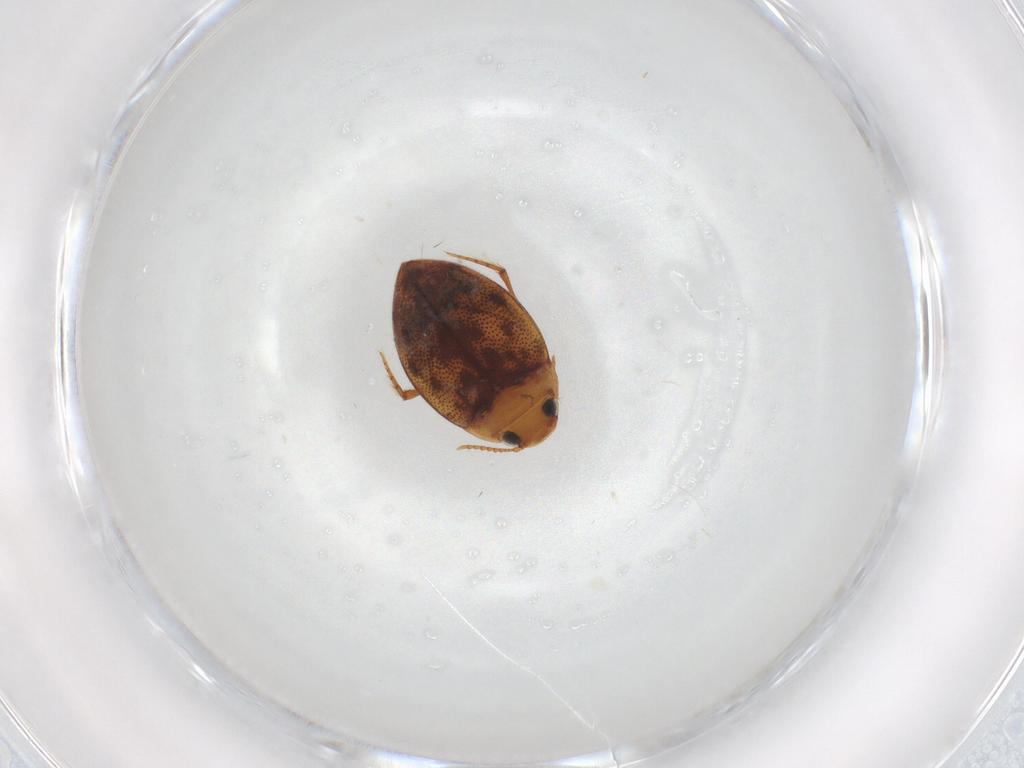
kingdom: Animalia
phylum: Arthropoda
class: Insecta
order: Coleoptera
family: Dytiscidae
